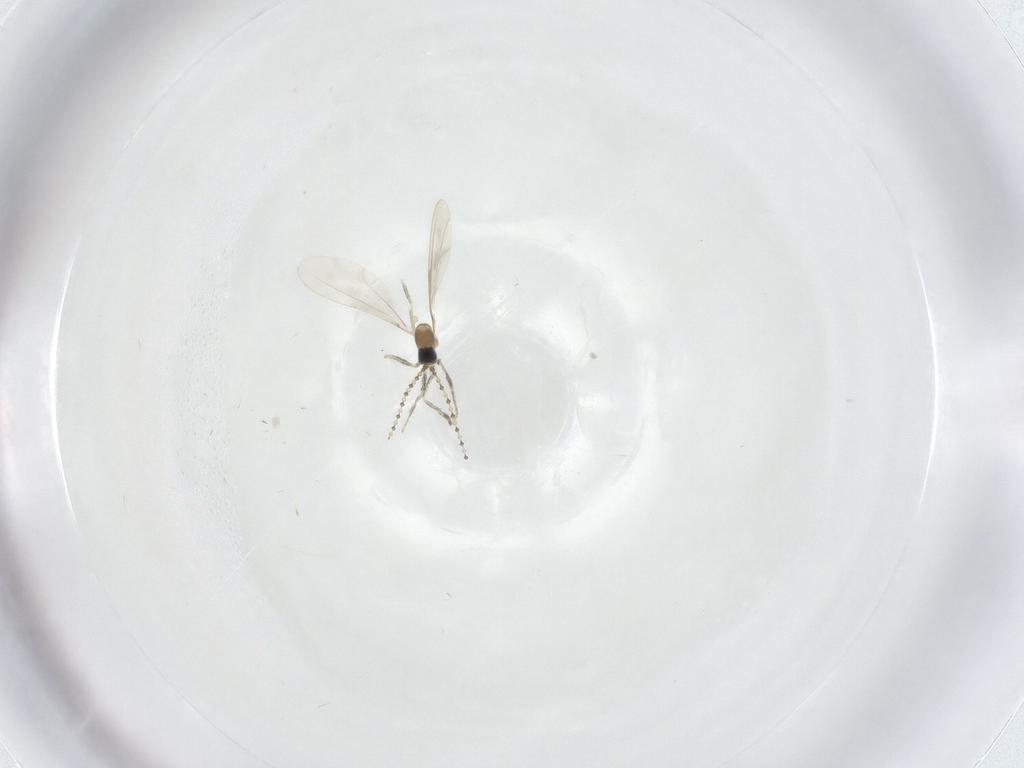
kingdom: Animalia
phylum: Arthropoda
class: Insecta
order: Diptera
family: Cecidomyiidae
